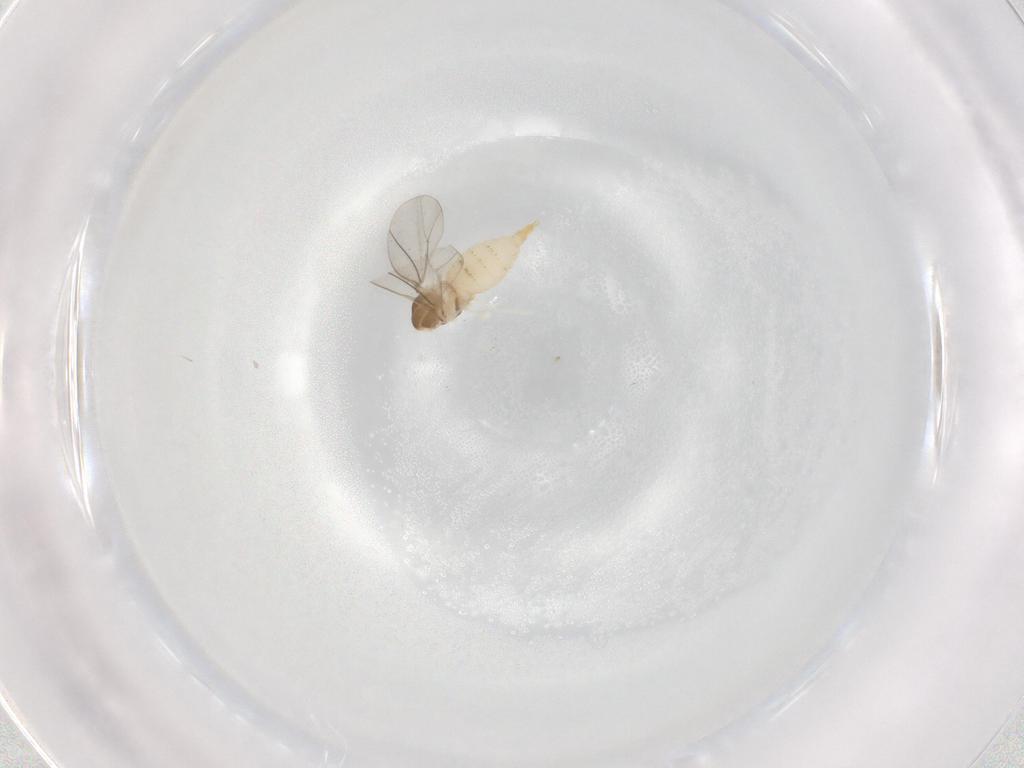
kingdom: Animalia
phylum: Arthropoda
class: Insecta
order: Diptera
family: Cecidomyiidae
